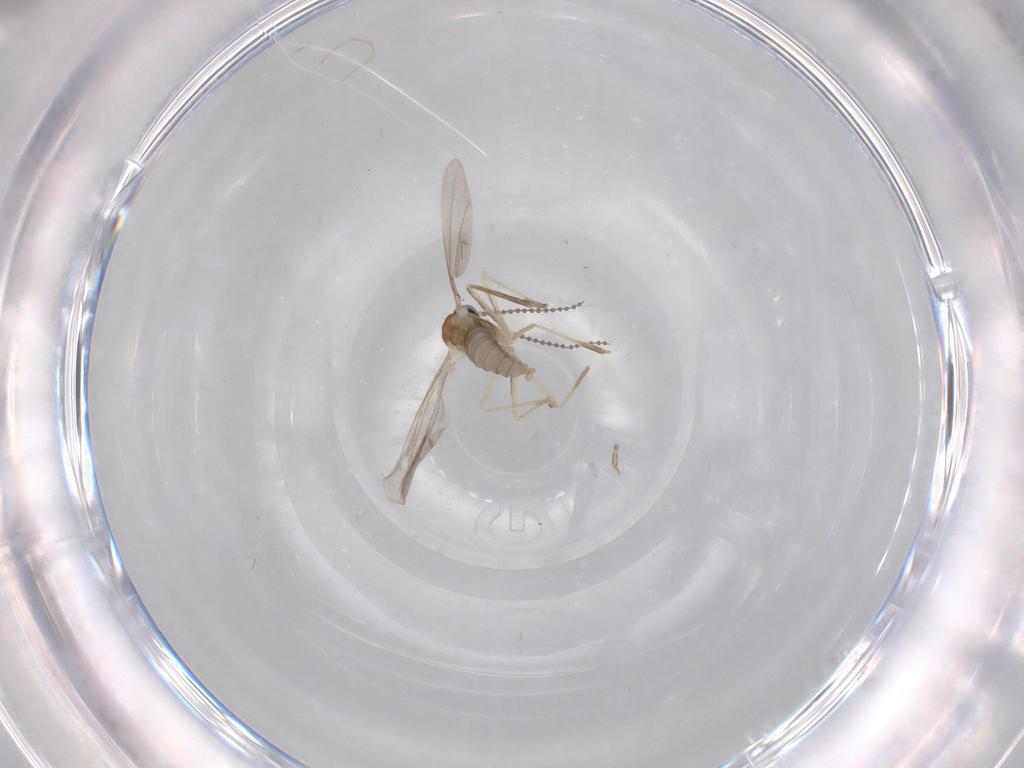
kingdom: Animalia
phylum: Arthropoda
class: Insecta
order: Diptera
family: Cecidomyiidae
